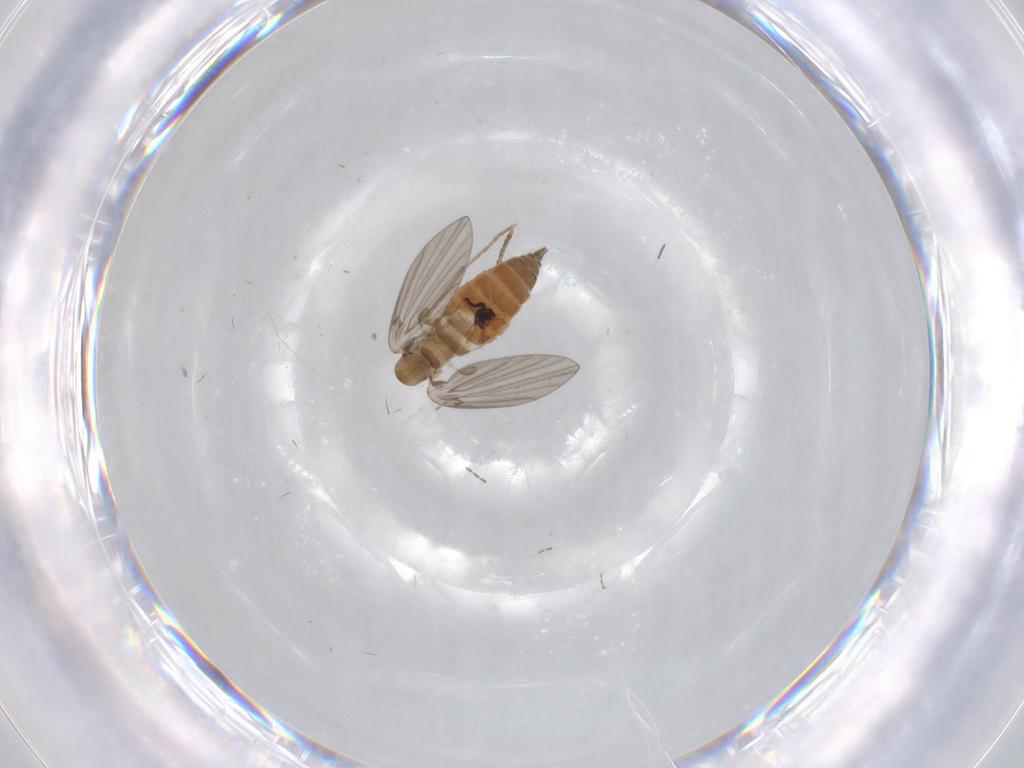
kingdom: Animalia
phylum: Arthropoda
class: Insecta
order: Diptera
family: Cecidomyiidae
